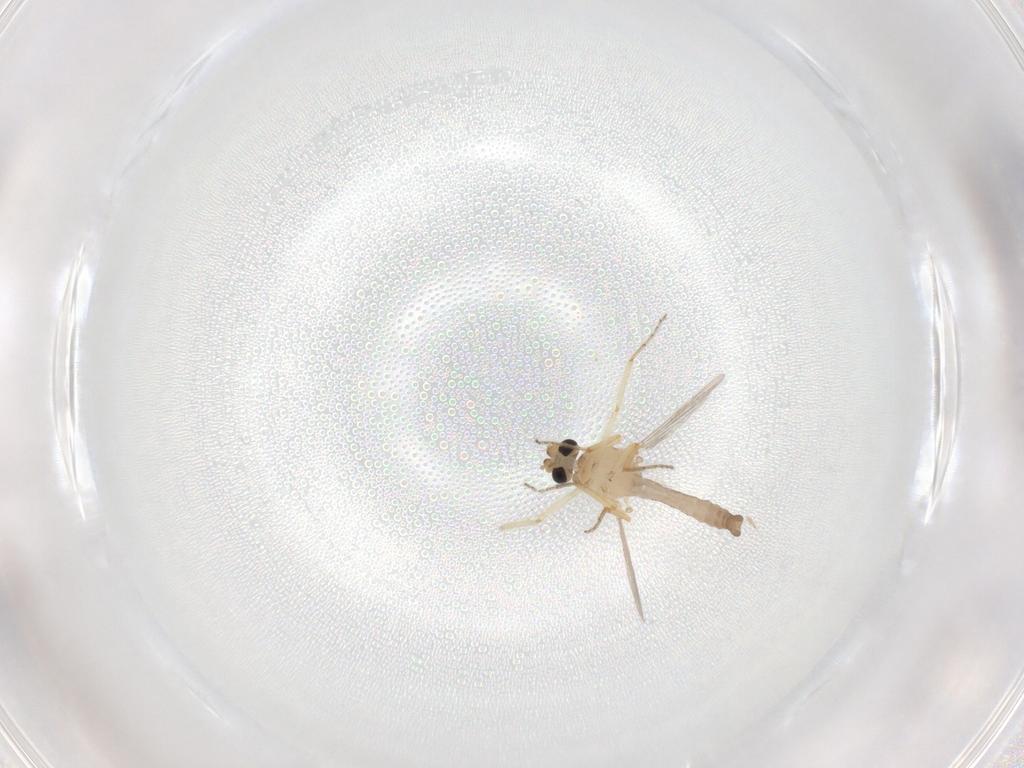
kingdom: Animalia
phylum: Arthropoda
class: Insecta
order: Diptera
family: Ceratopogonidae
